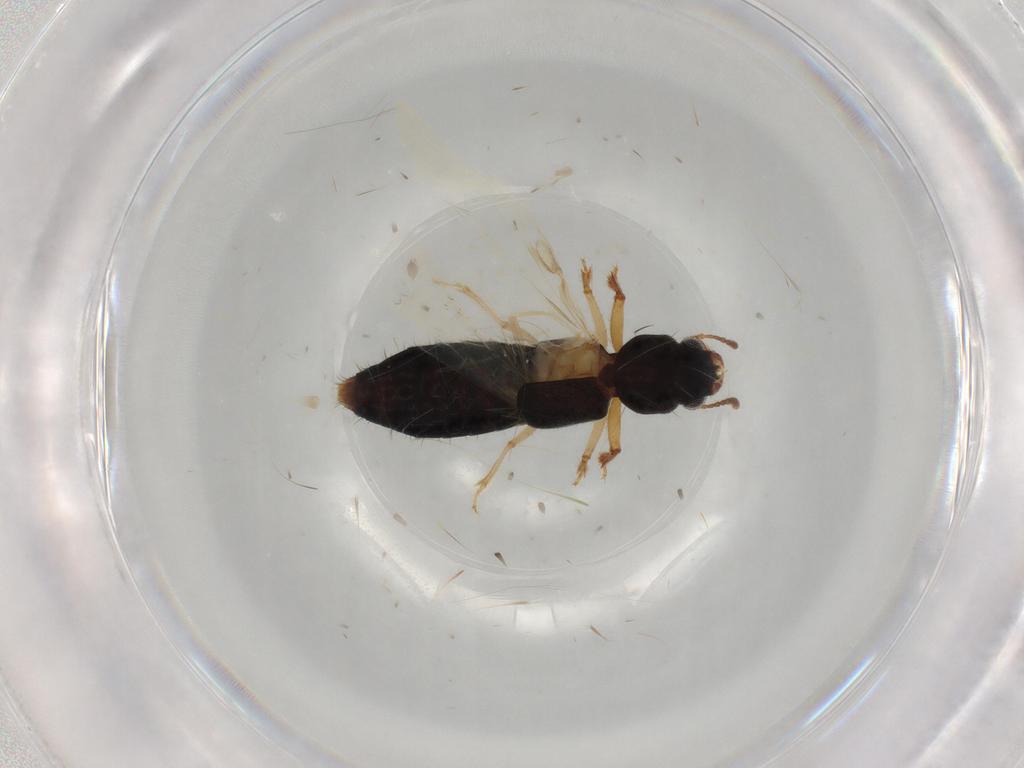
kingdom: Animalia
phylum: Arthropoda
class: Insecta
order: Coleoptera
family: Staphylinidae
